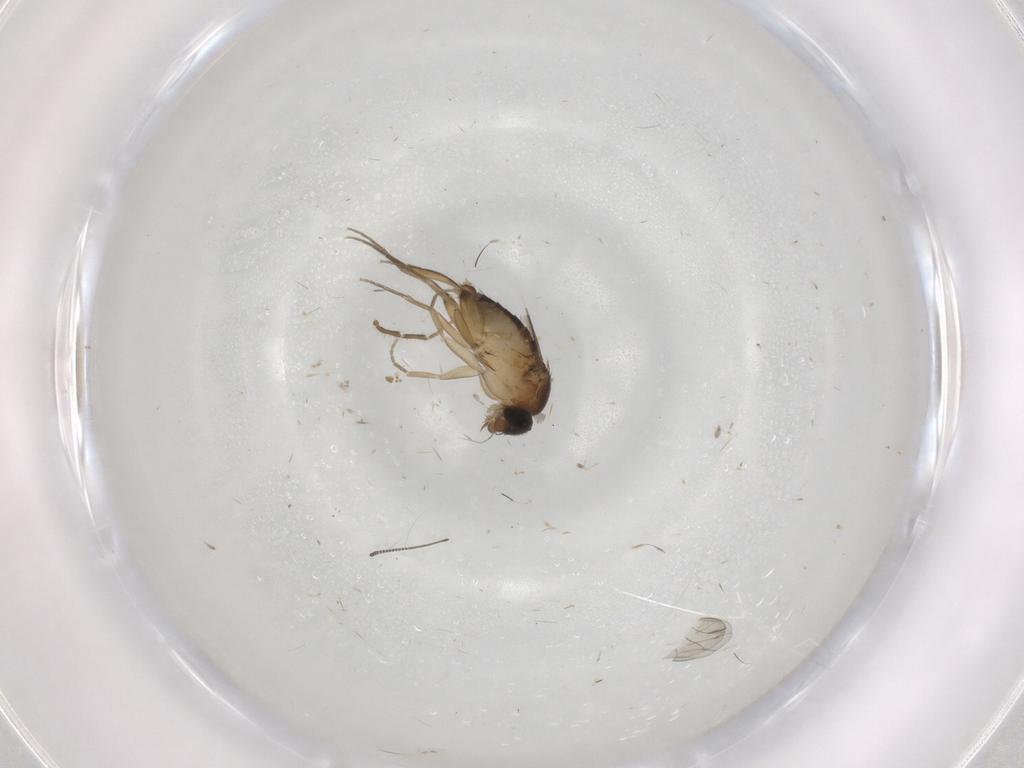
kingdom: Animalia
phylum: Arthropoda
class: Insecta
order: Diptera
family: Phoridae
